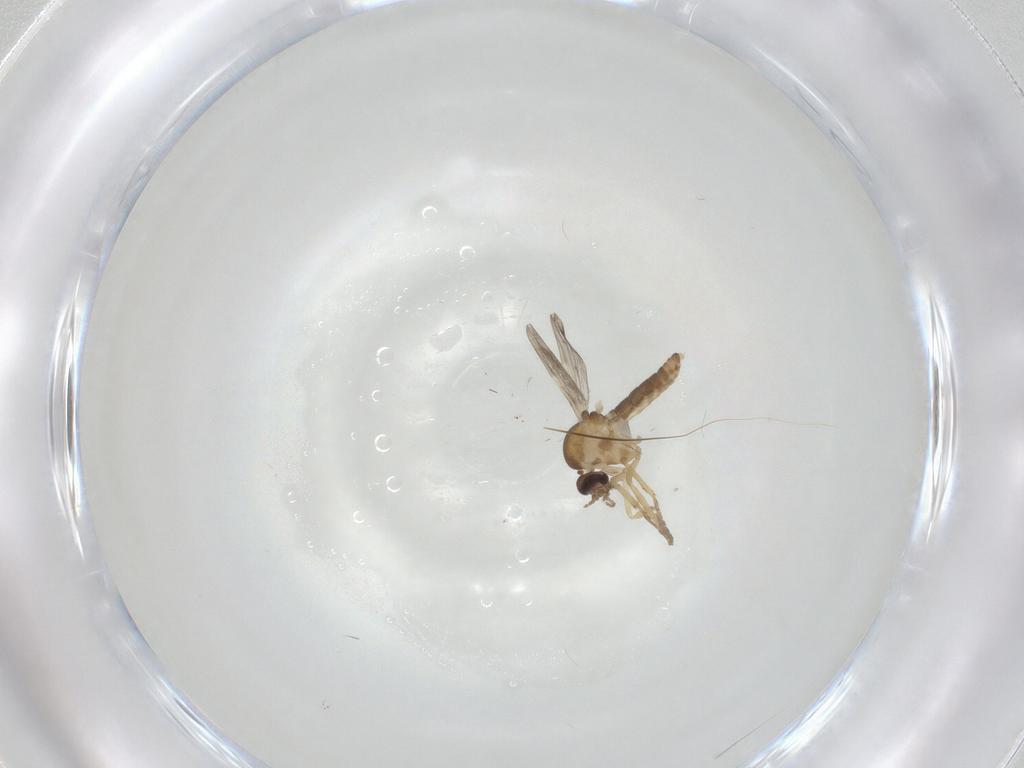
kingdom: Animalia
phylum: Arthropoda
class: Insecta
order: Diptera
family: Ceratopogonidae
